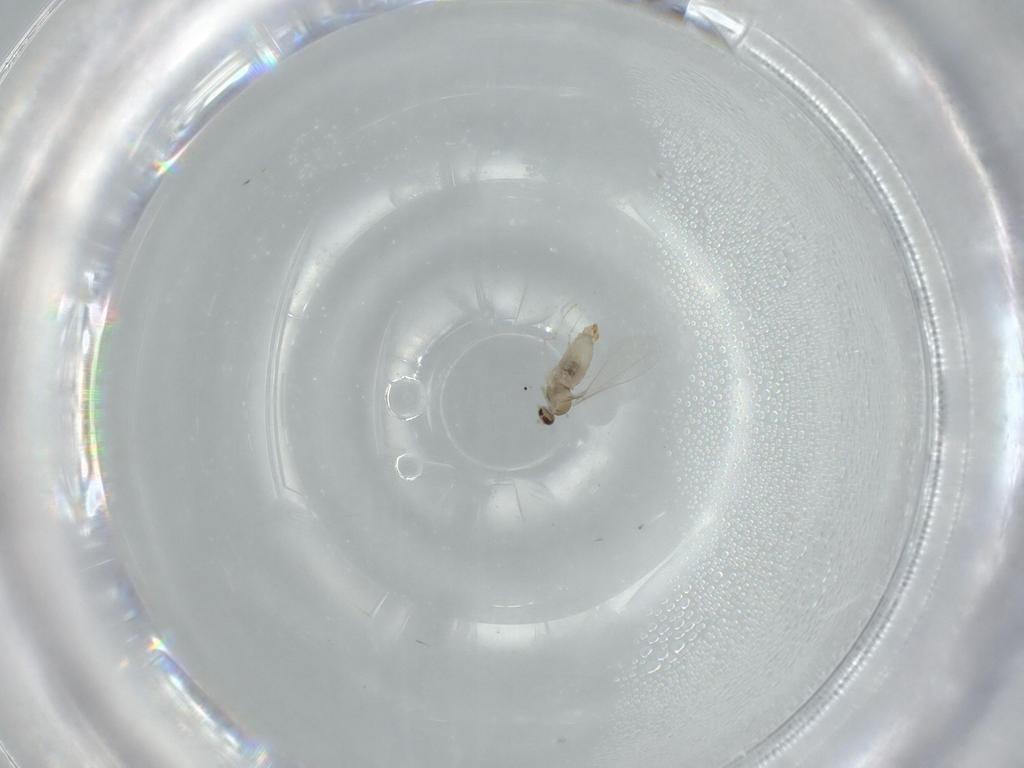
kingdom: Animalia
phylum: Arthropoda
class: Insecta
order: Diptera
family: Cecidomyiidae
